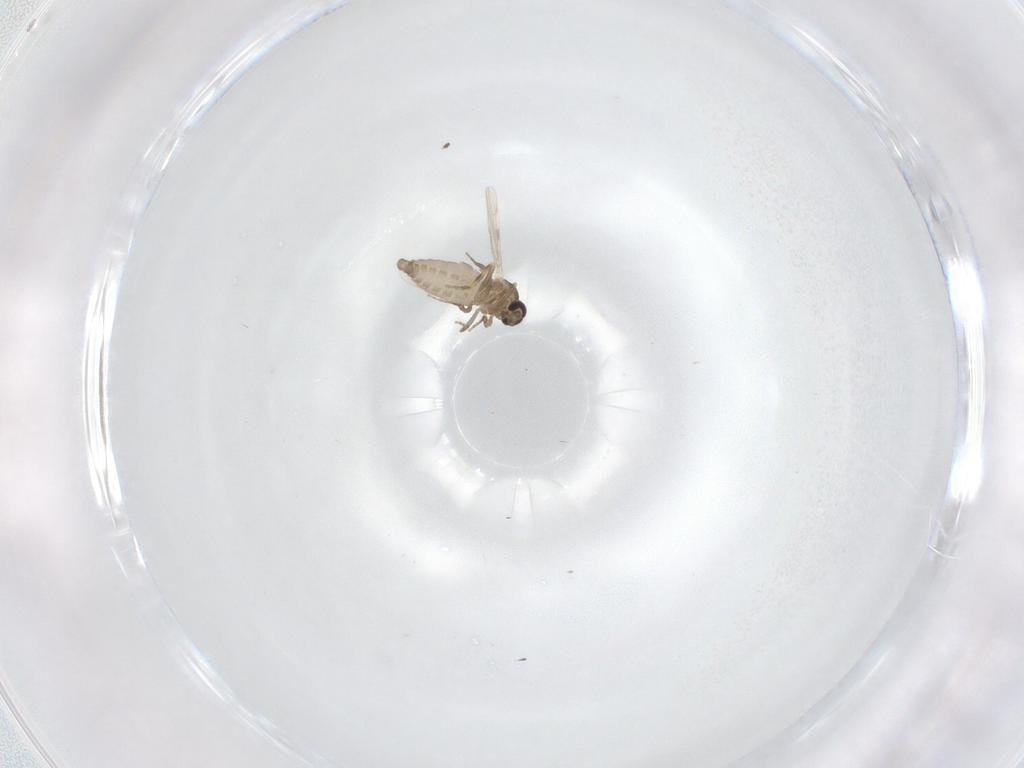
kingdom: Animalia
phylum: Arthropoda
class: Insecta
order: Diptera
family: Ceratopogonidae
